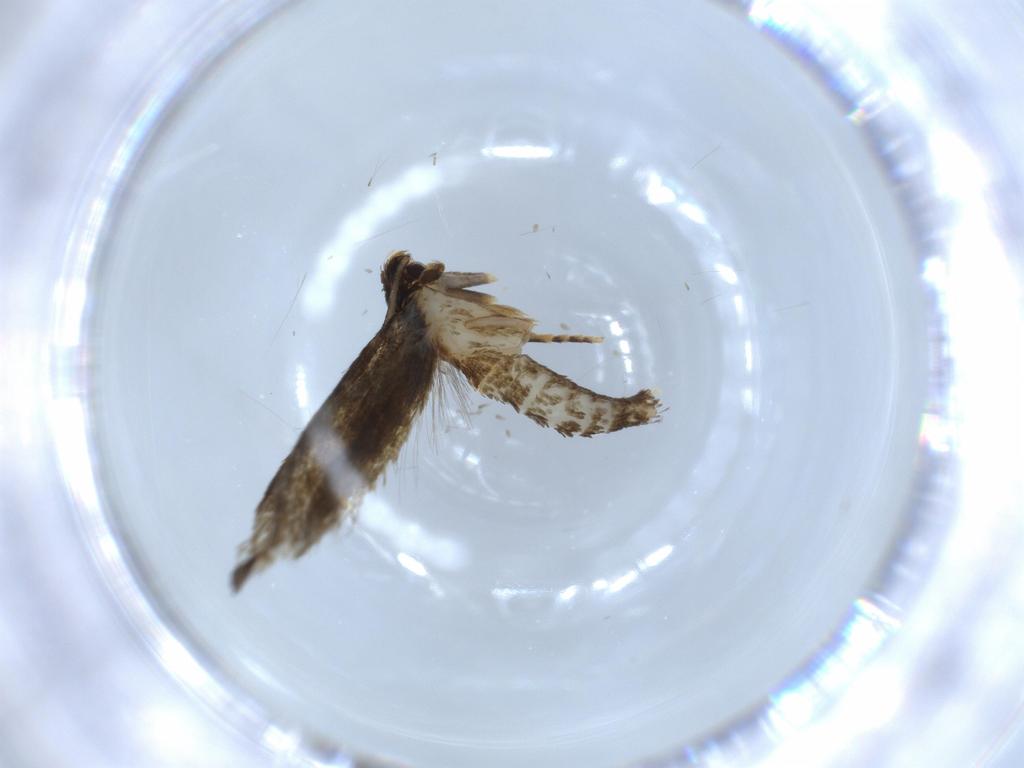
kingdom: Animalia
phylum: Arthropoda
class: Insecta
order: Lepidoptera
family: Tineidae
